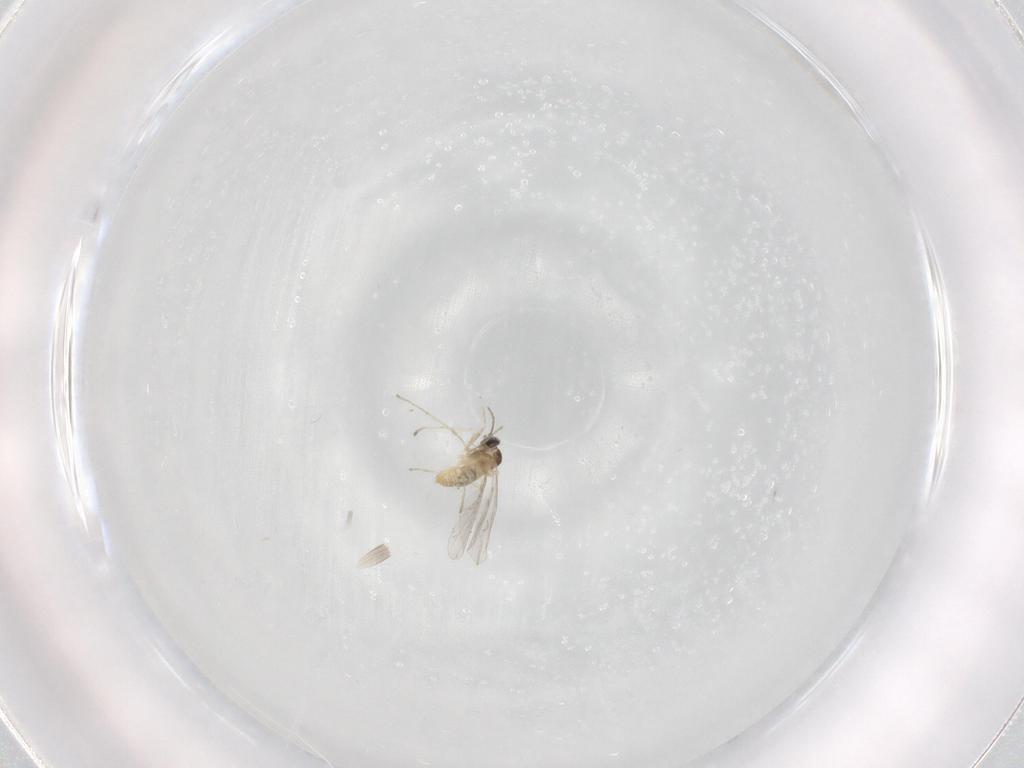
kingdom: Animalia
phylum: Arthropoda
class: Insecta
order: Diptera
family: Cecidomyiidae
